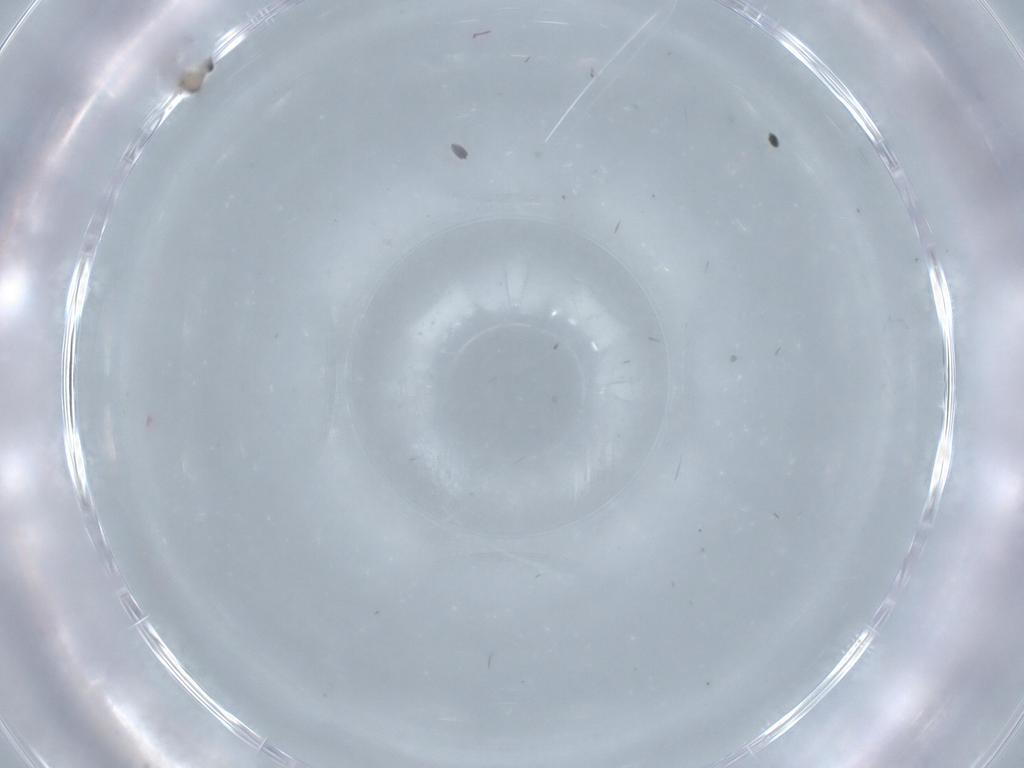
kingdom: Animalia
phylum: Arthropoda
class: Insecta
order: Diptera
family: Cecidomyiidae
